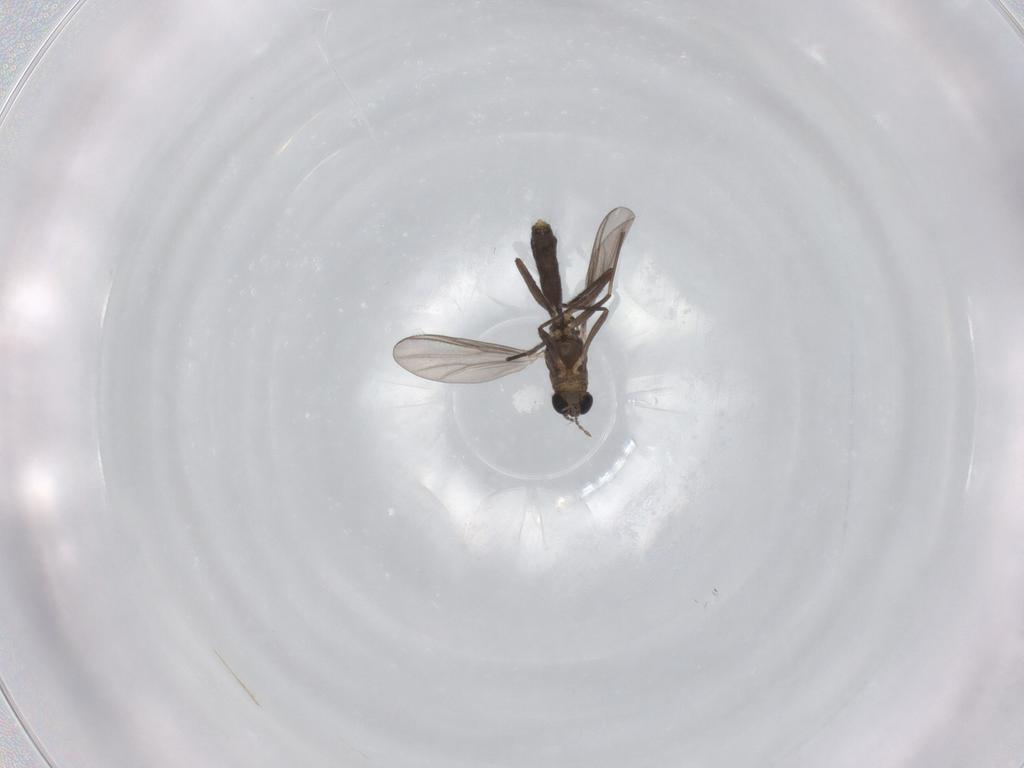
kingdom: Animalia
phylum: Arthropoda
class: Insecta
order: Diptera
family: Chironomidae
